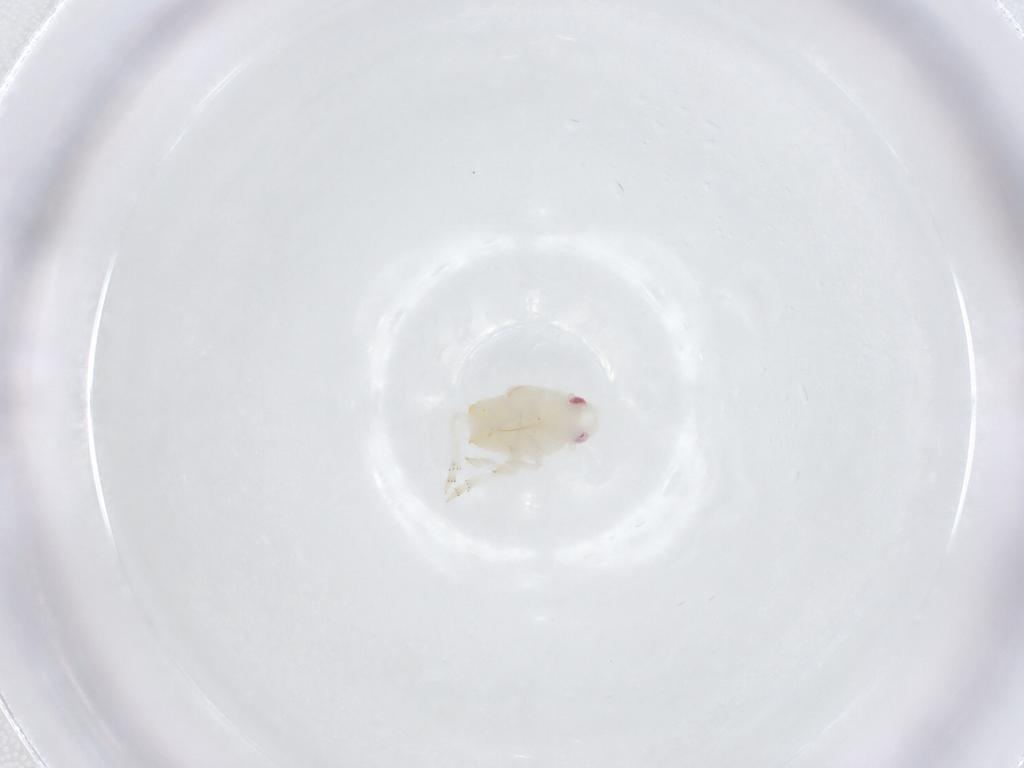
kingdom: Animalia
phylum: Arthropoda
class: Insecta
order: Hemiptera
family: Flatidae
